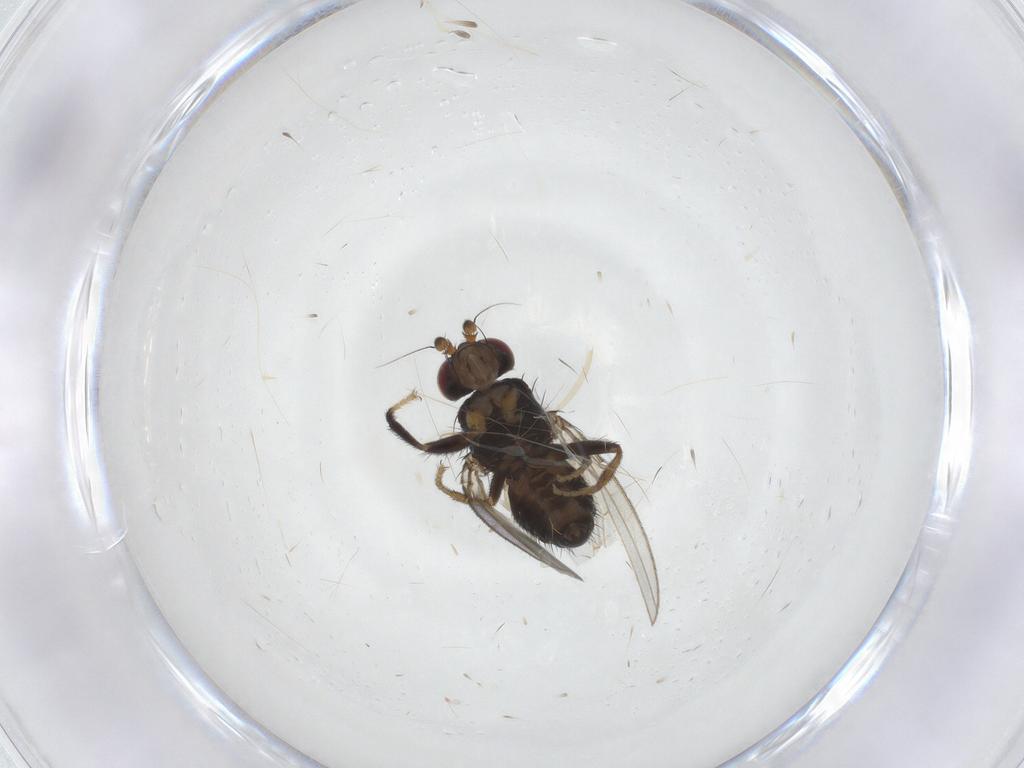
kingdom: Animalia
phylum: Arthropoda
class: Insecta
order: Diptera
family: Cypselosomatidae
